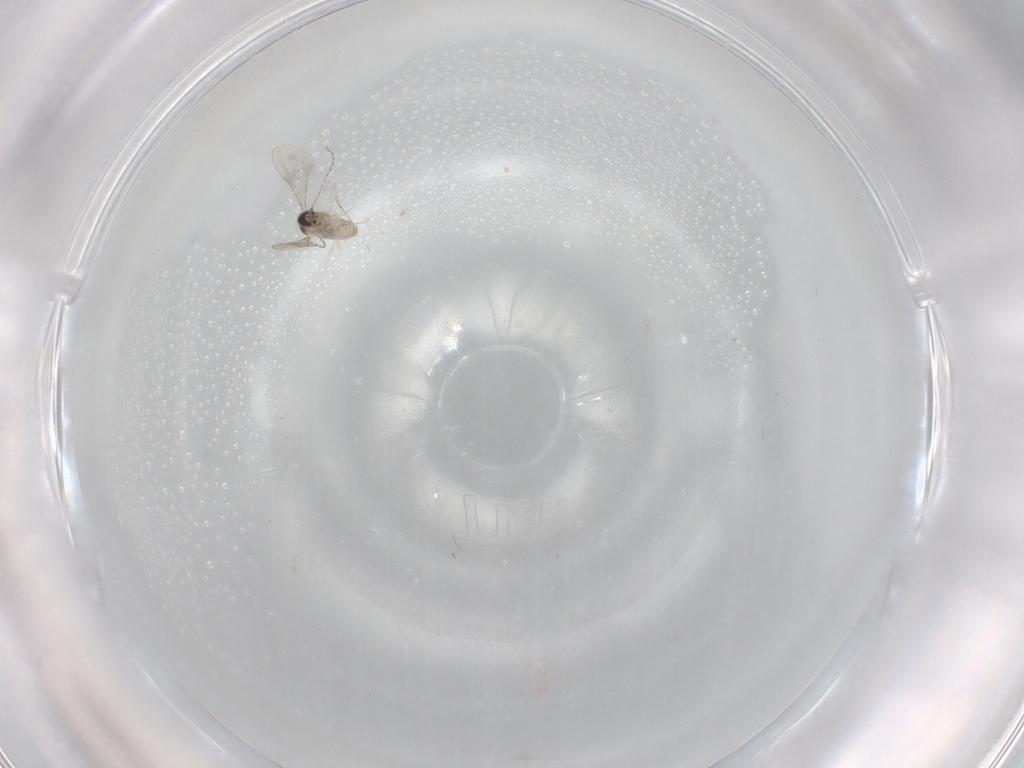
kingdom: Animalia
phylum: Arthropoda
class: Insecta
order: Diptera
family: Cecidomyiidae
